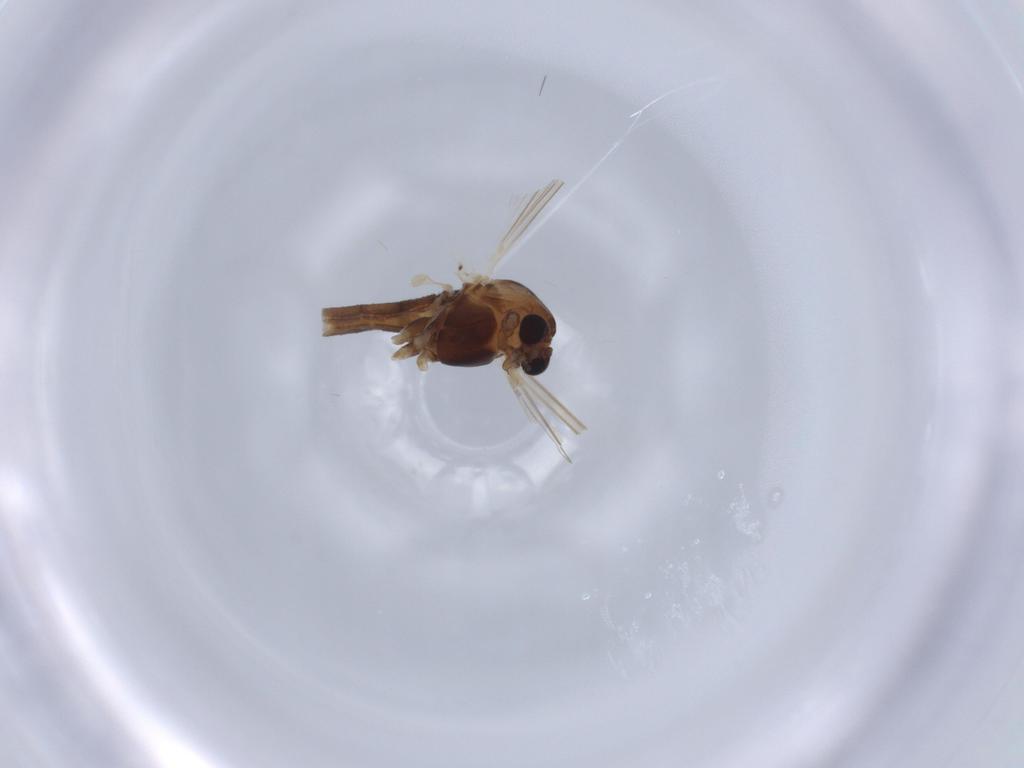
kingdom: Animalia
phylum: Arthropoda
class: Insecta
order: Diptera
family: Chironomidae
